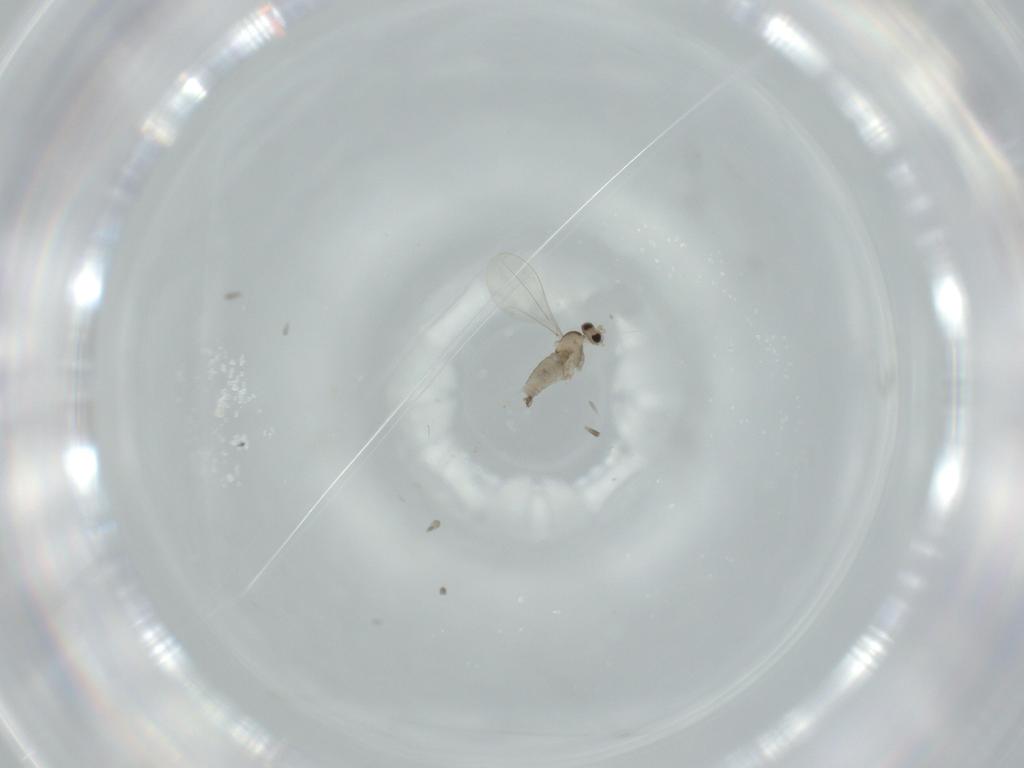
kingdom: Animalia
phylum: Arthropoda
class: Insecta
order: Diptera
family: Cecidomyiidae
